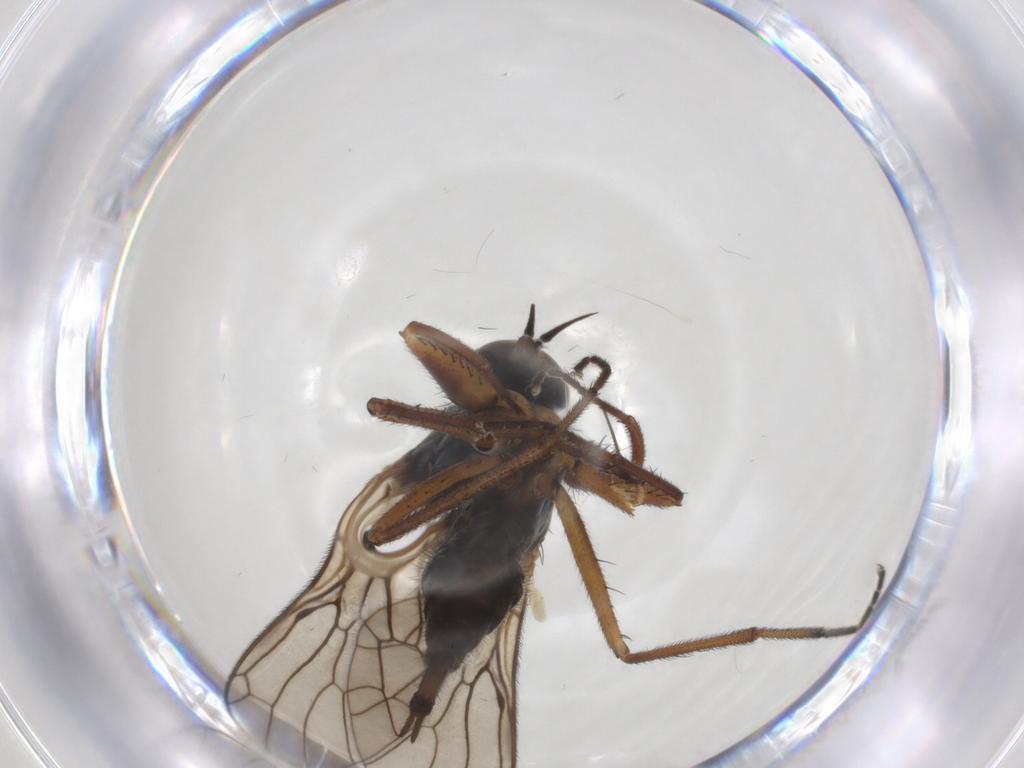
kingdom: Animalia
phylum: Arthropoda
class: Insecta
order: Diptera
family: Empididae
